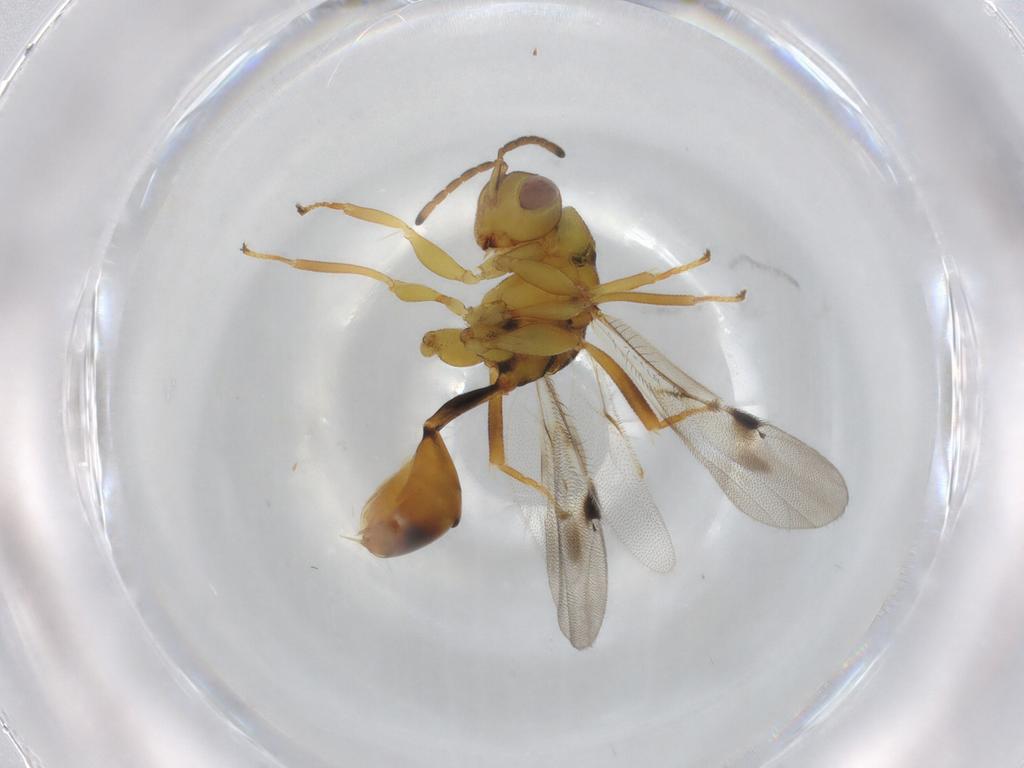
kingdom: Animalia
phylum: Arthropoda
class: Insecta
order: Hymenoptera
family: Eurytomidae
